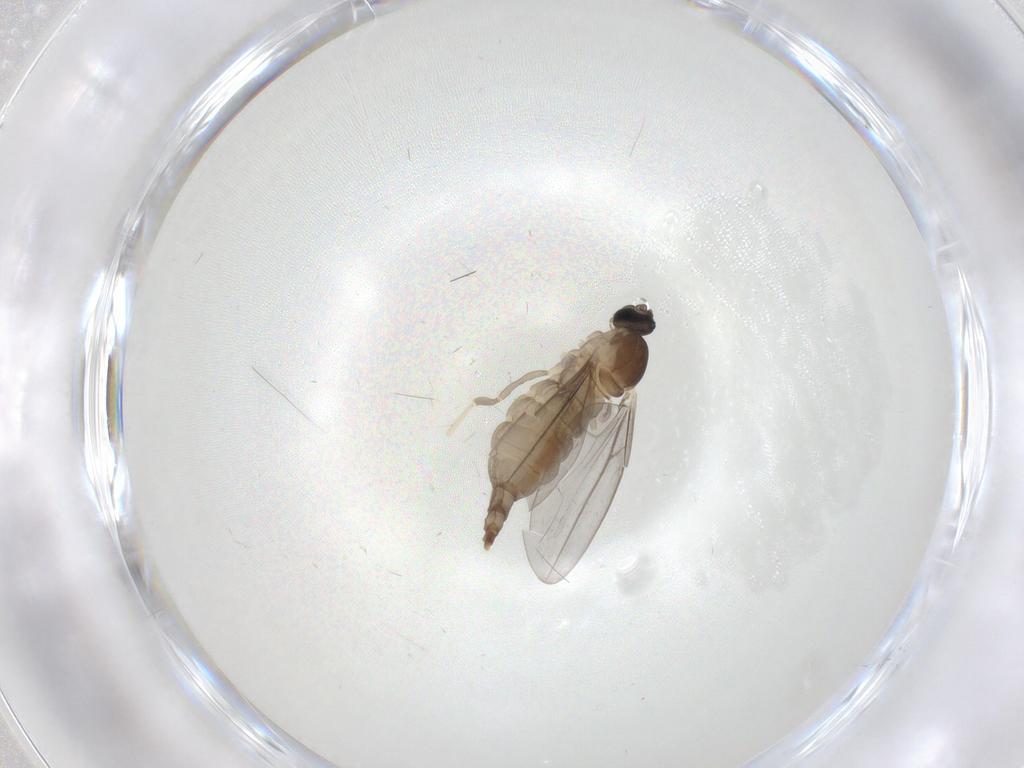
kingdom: Animalia
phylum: Arthropoda
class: Insecta
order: Diptera
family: Cecidomyiidae
